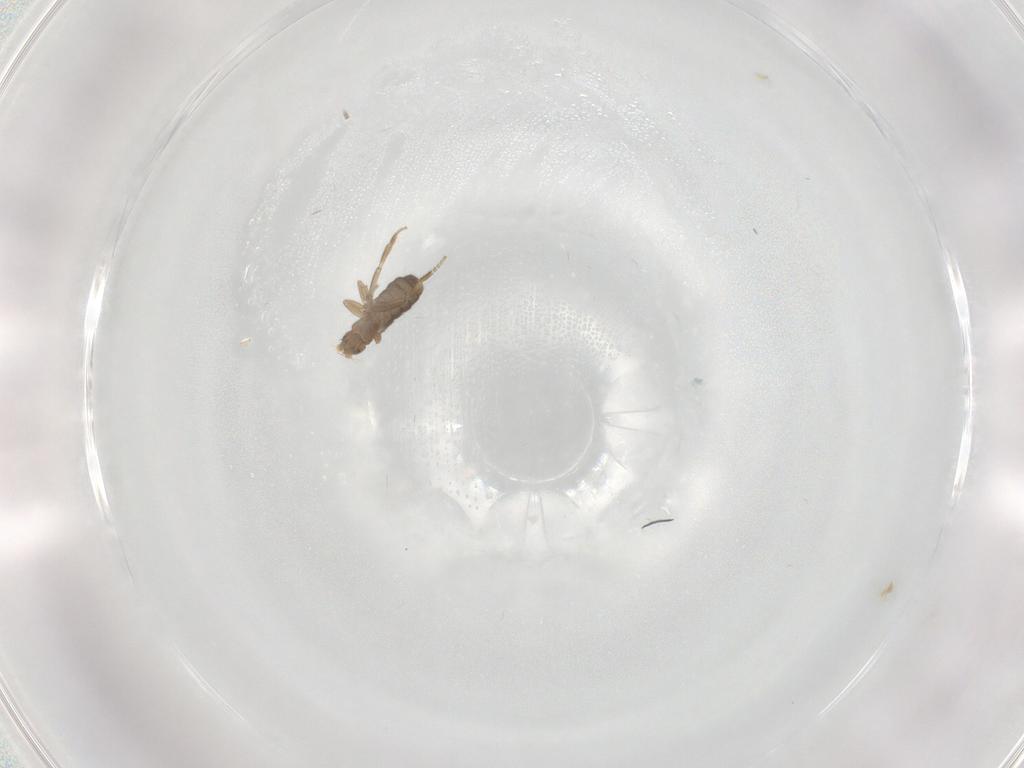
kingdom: Animalia
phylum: Arthropoda
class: Insecta
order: Diptera
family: Phoridae
